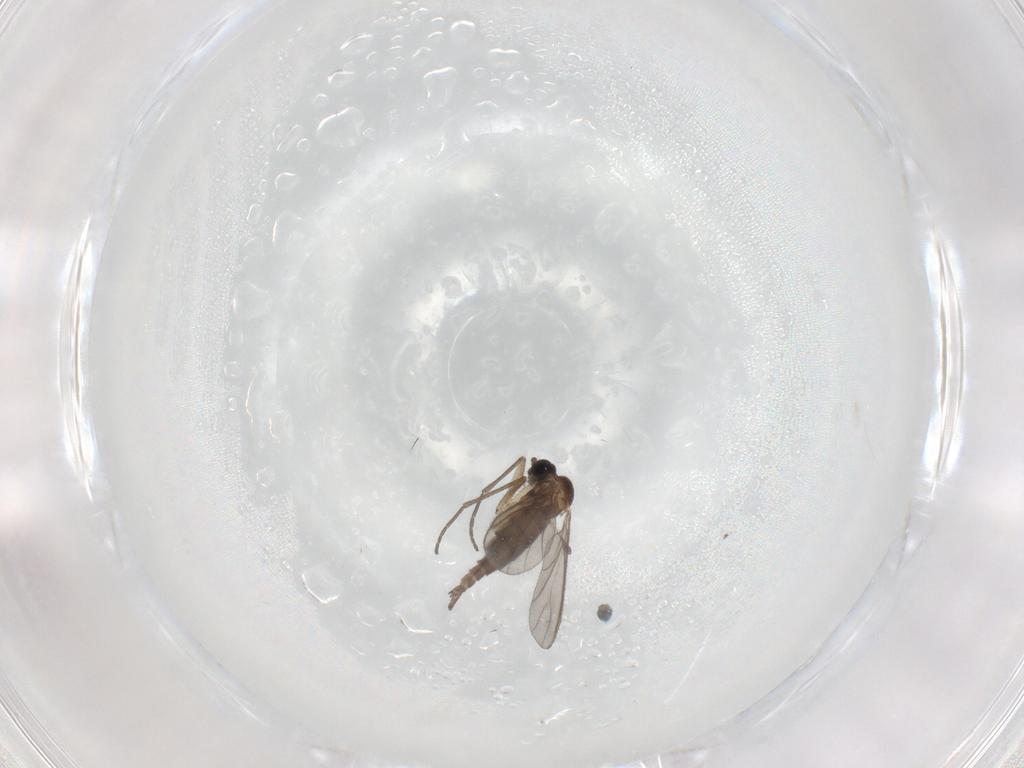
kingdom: Animalia
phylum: Arthropoda
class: Insecta
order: Diptera
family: Sciaridae
